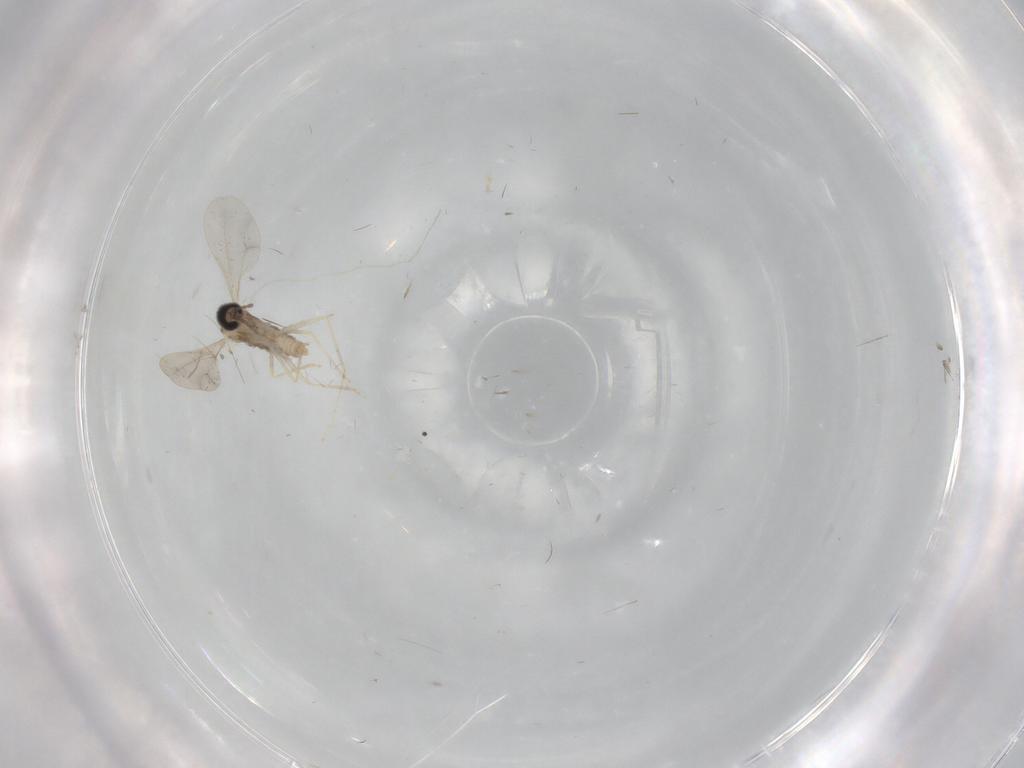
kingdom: Animalia
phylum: Arthropoda
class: Insecta
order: Diptera
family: Cecidomyiidae
